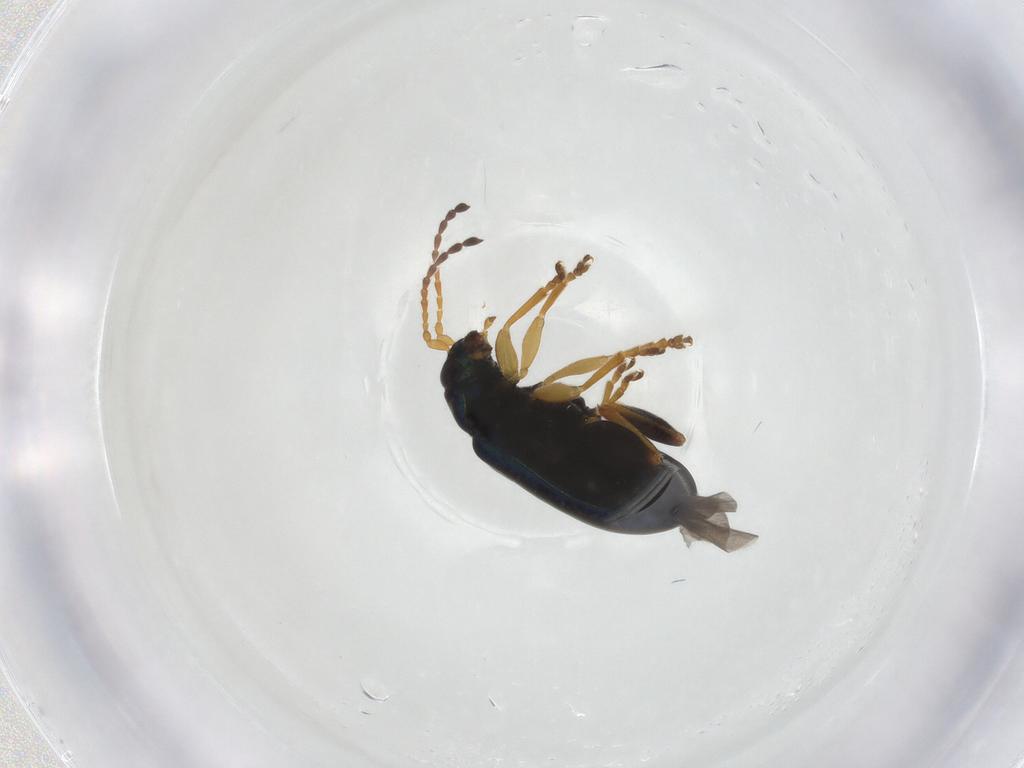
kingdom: Animalia
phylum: Arthropoda
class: Insecta
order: Coleoptera
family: Chrysomelidae
